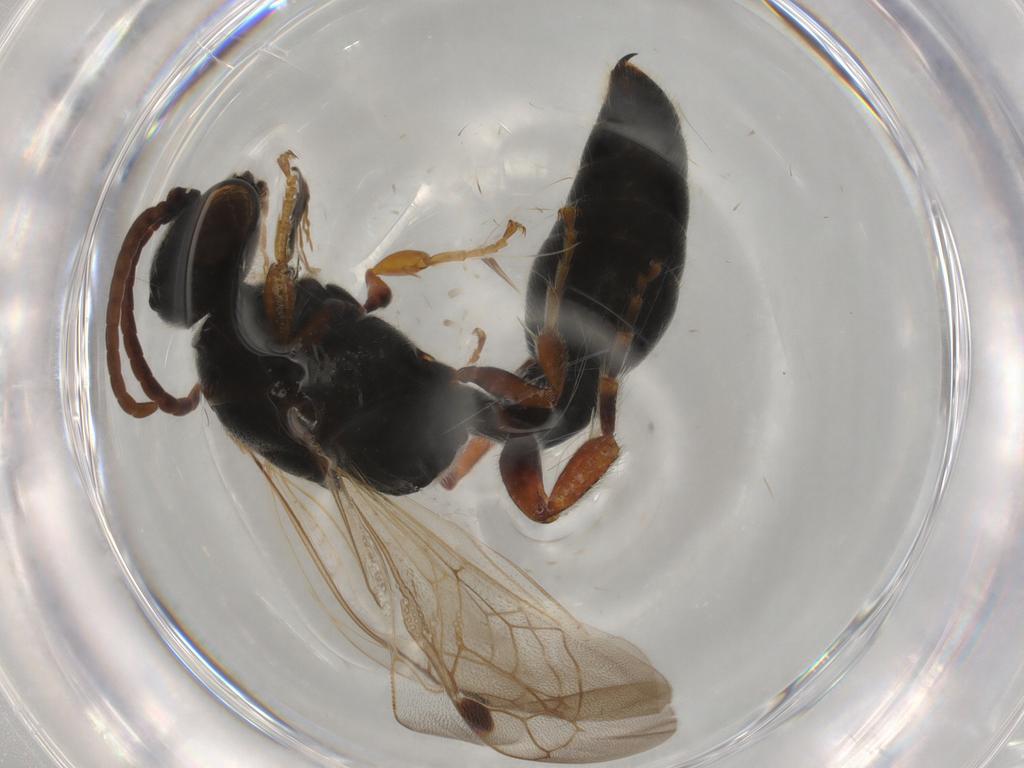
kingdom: Animalia
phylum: Arthropoda
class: Insecta
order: Hymenoptera
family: Tiphiidae
